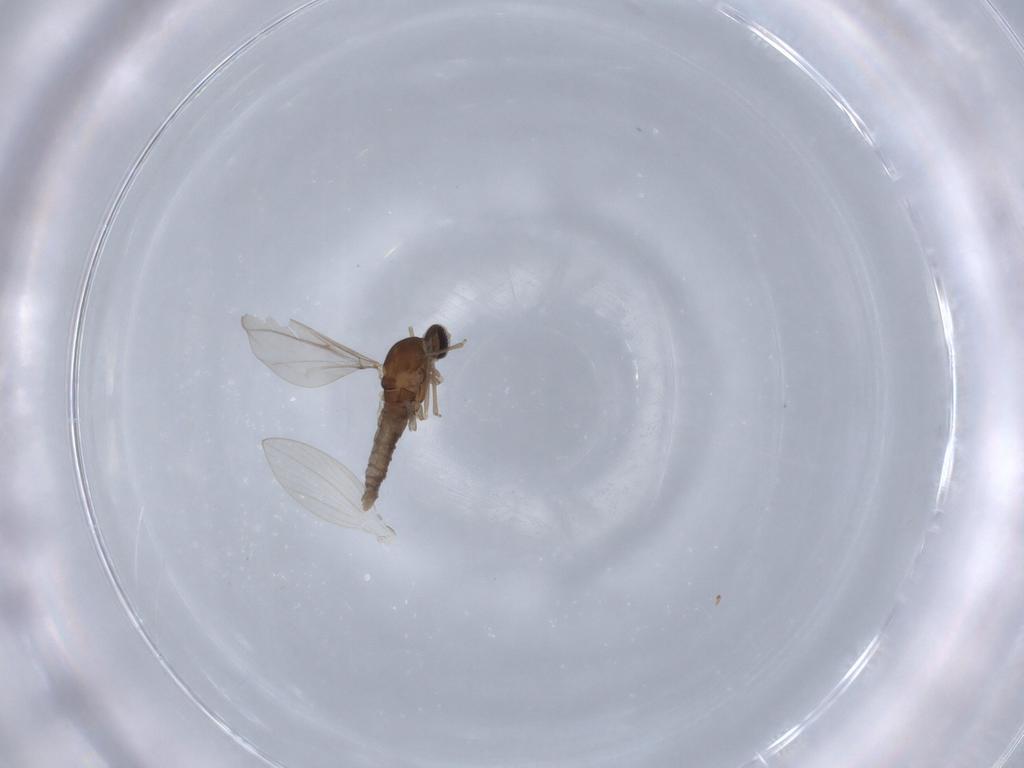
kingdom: Animalia
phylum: Arthropoda
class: Insecta
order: Diptera
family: Cecidomyiidae
